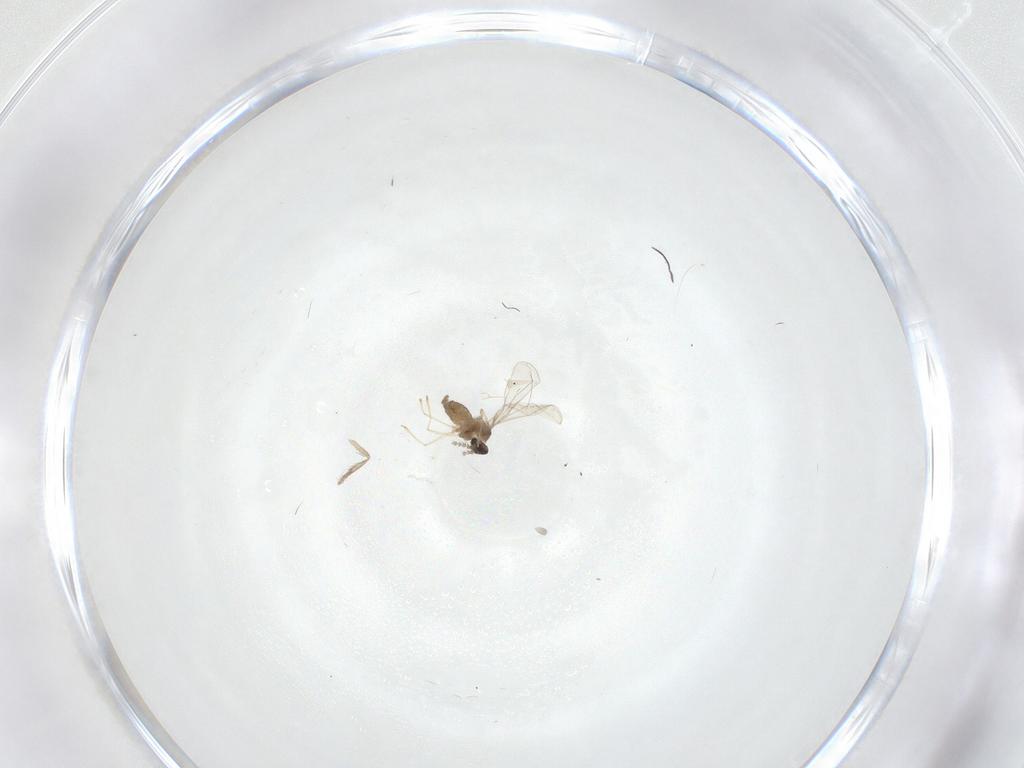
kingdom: Animalia
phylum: Arthropoda
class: Insecta
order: Diptera
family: Cecidomyiidae
